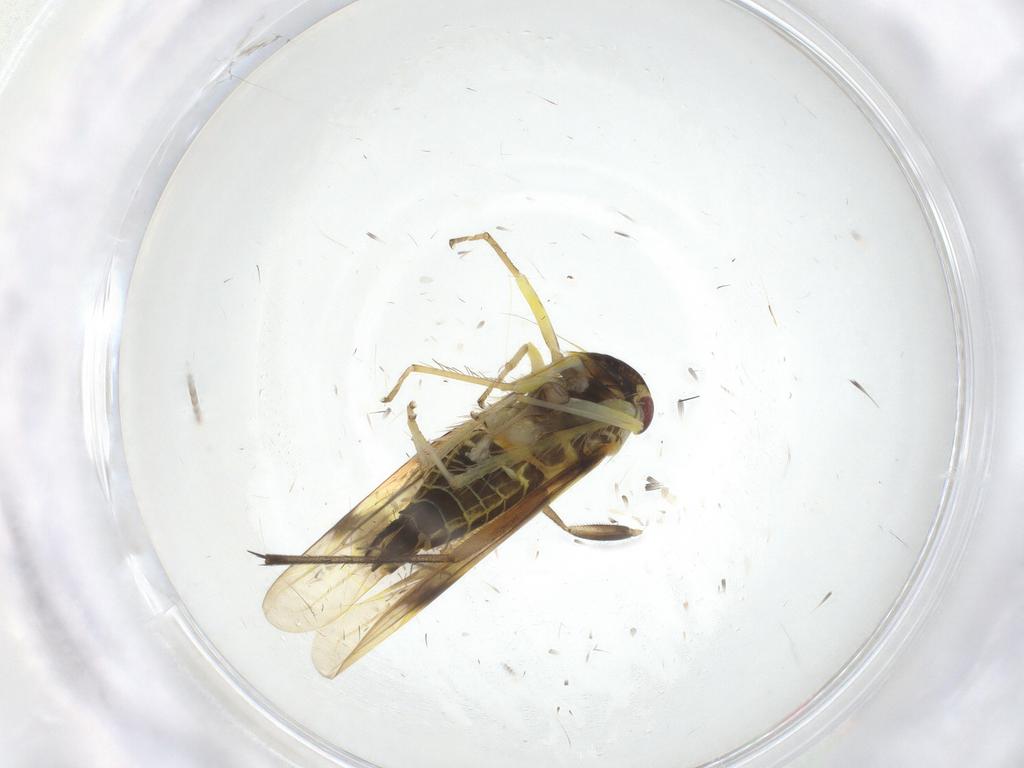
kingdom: Animalia
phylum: Arthropoda
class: Insecta
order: Hemiptera
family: Cicadellidae
